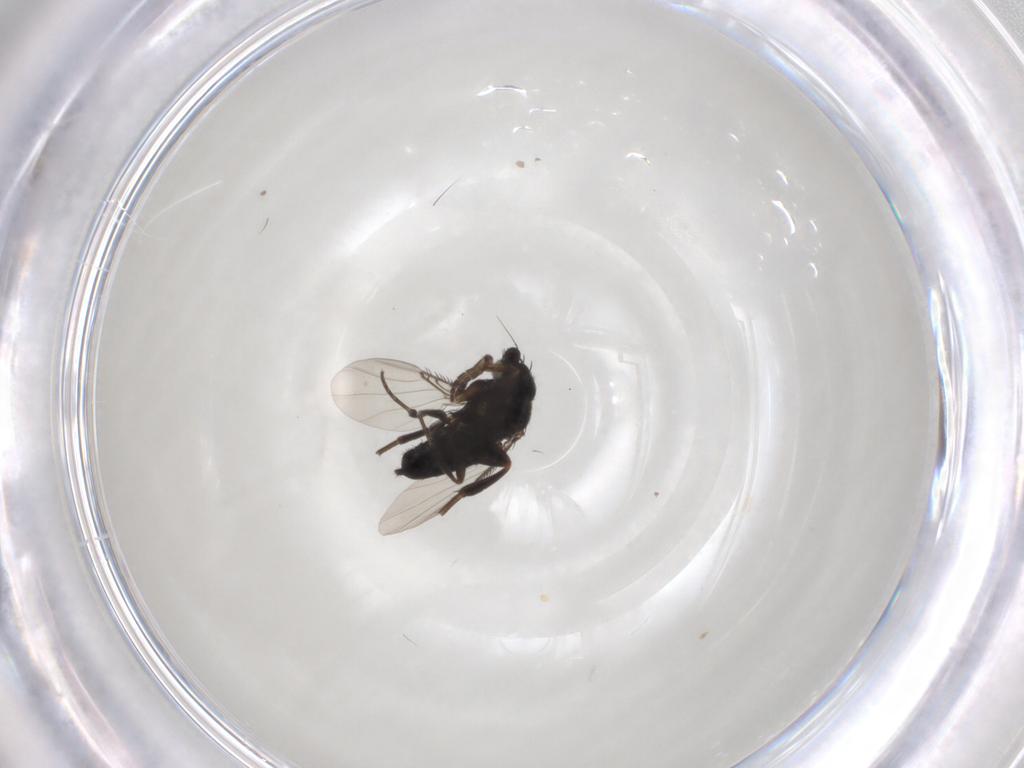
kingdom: Animalia
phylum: Arthropoda
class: Insecta
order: Diptera
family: Phoridae
